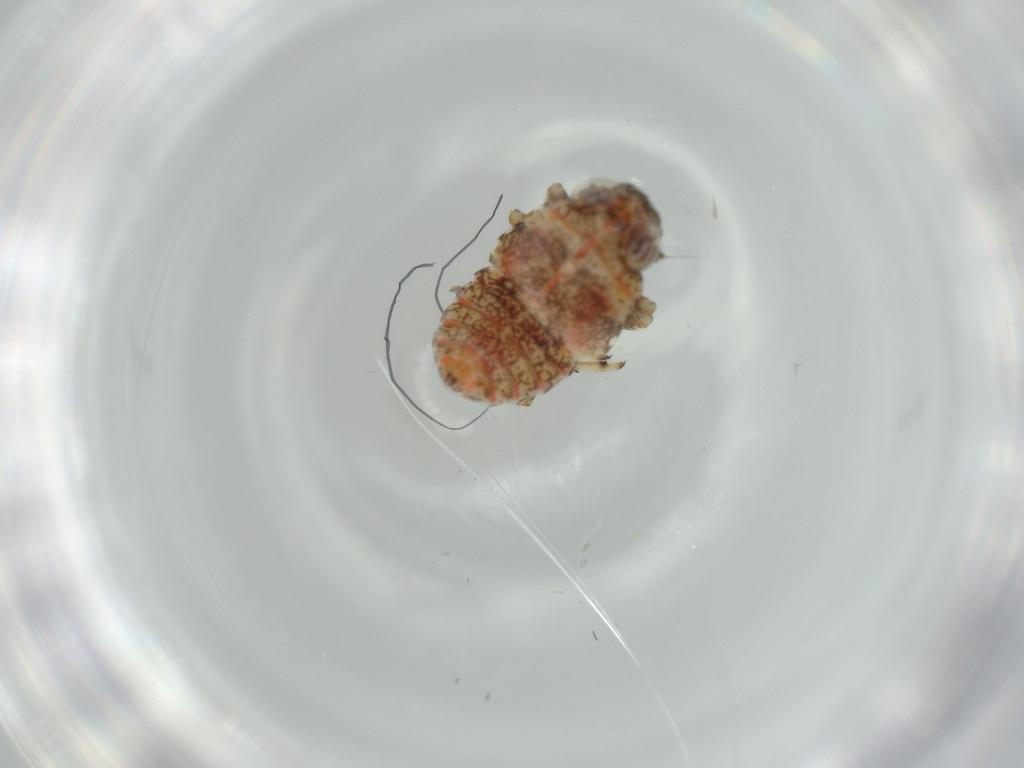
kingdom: Animalia
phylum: Arthropoda
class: Insecta
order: Hemiptera
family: Issidae
